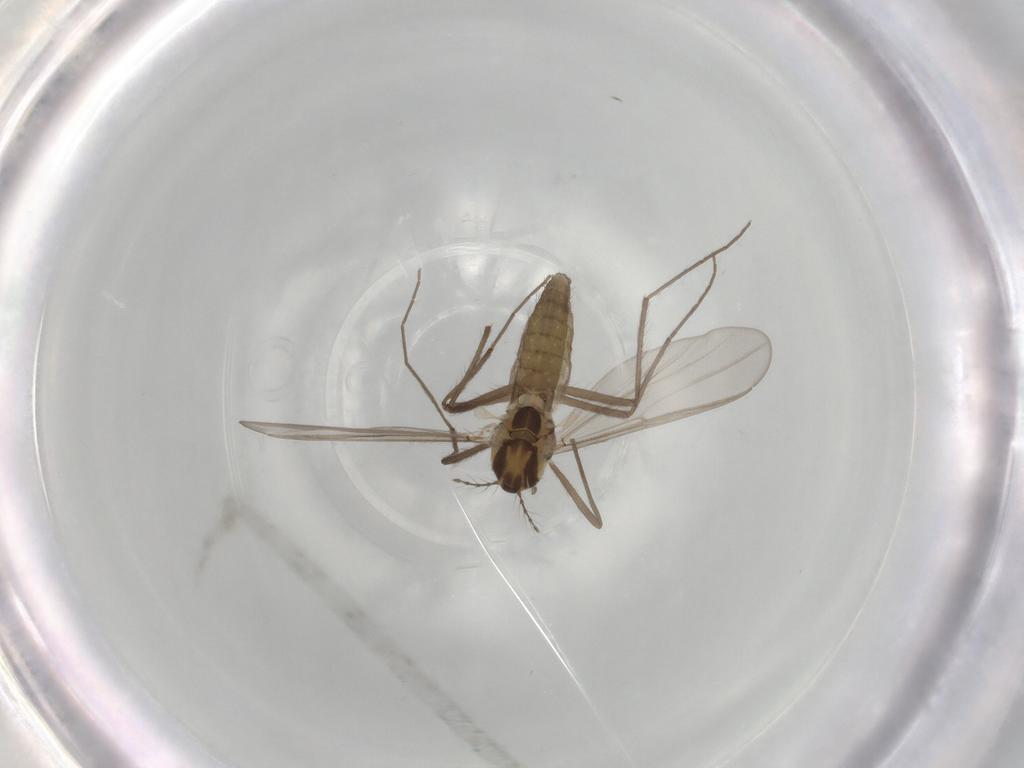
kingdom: Animalia
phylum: Arthropoda
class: Insecta
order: Diptera
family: Chironomidae
